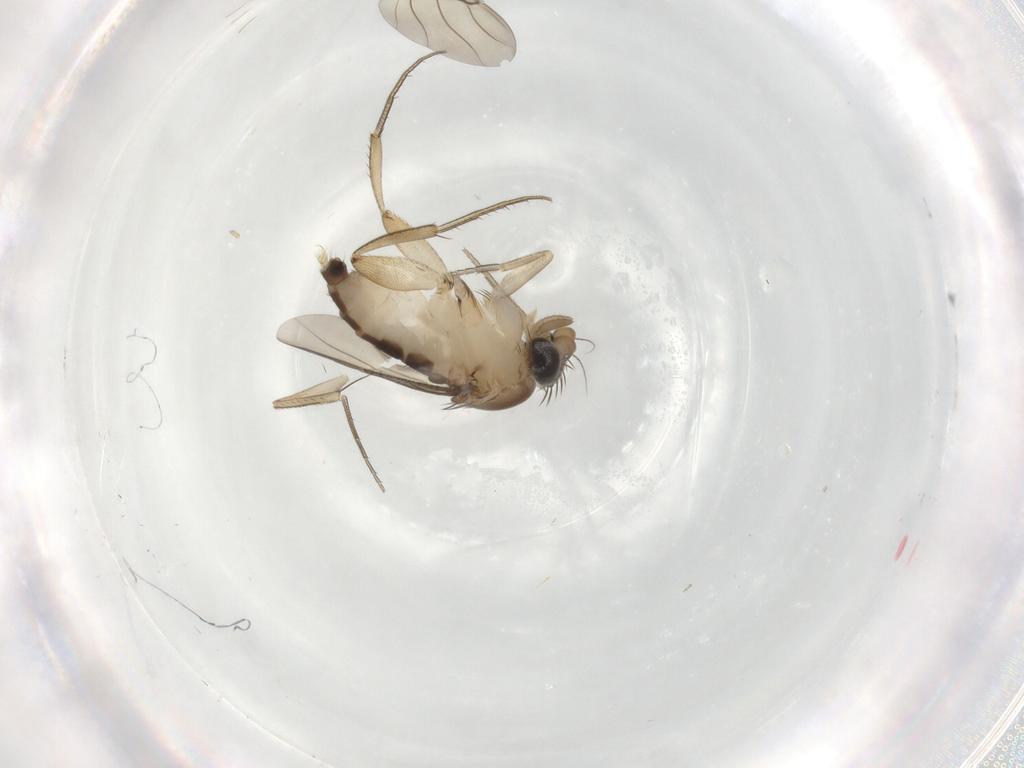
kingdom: Animalia
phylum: Arthropoda
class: Insecta
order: Diptera
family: Phoridae
